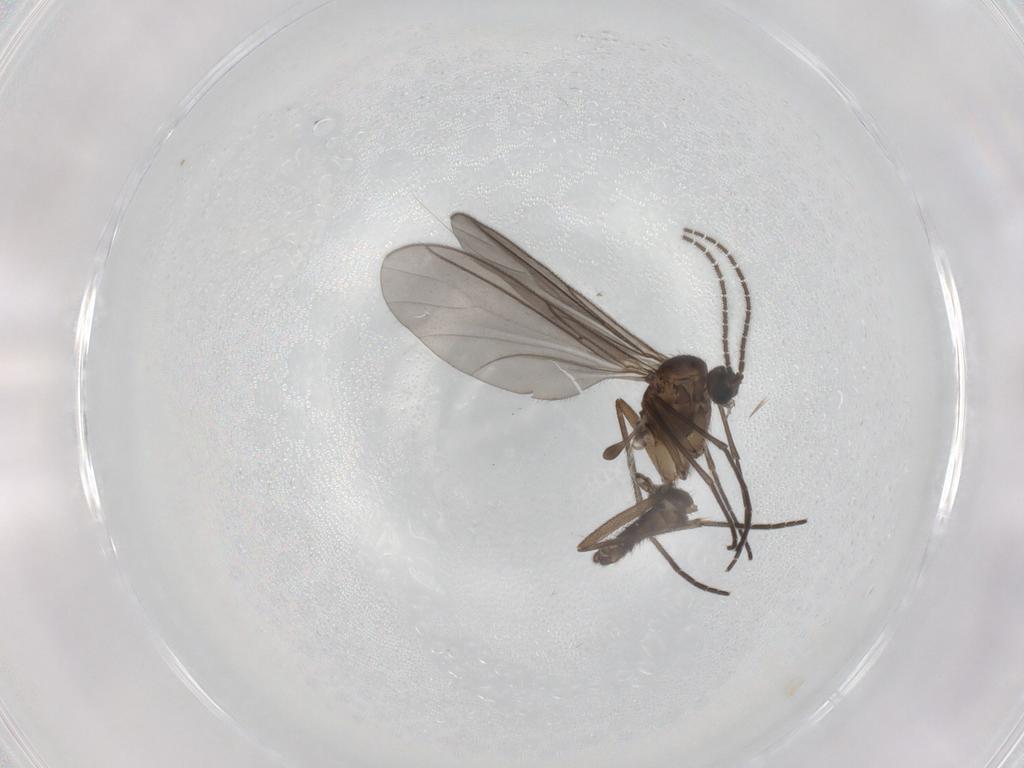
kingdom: Animalia
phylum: Arthropoda
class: Insecta
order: Diptera
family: Sciaridae
